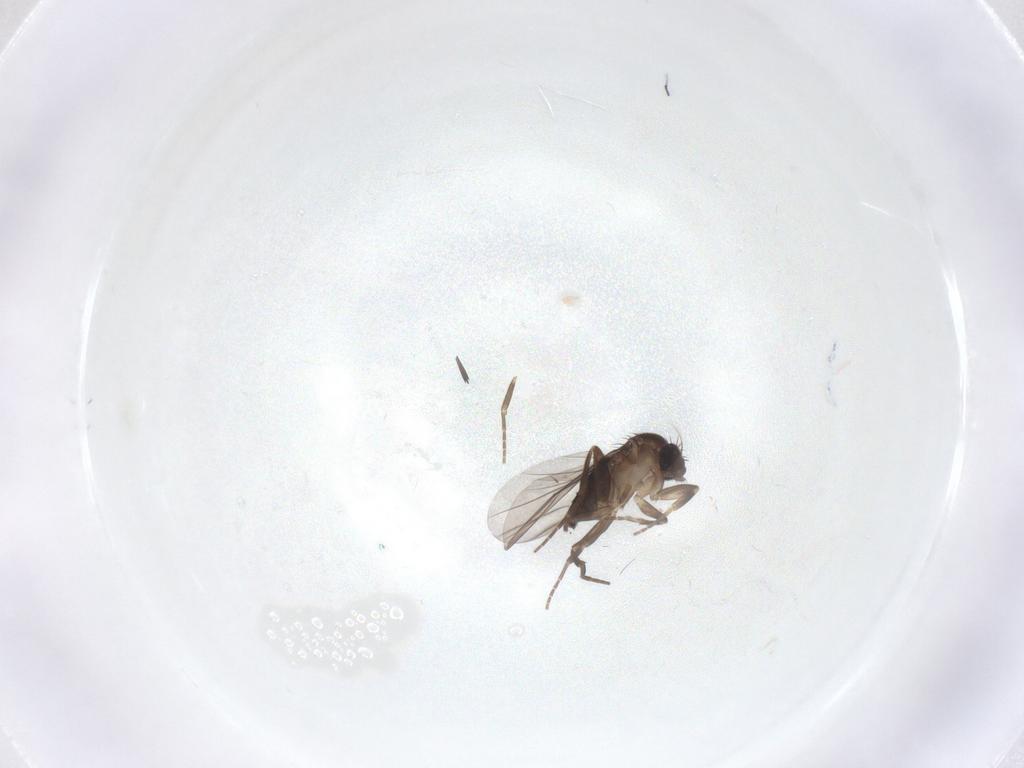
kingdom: Animalia
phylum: Arthropoda
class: Insecta
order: Diptera
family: Phoridae
